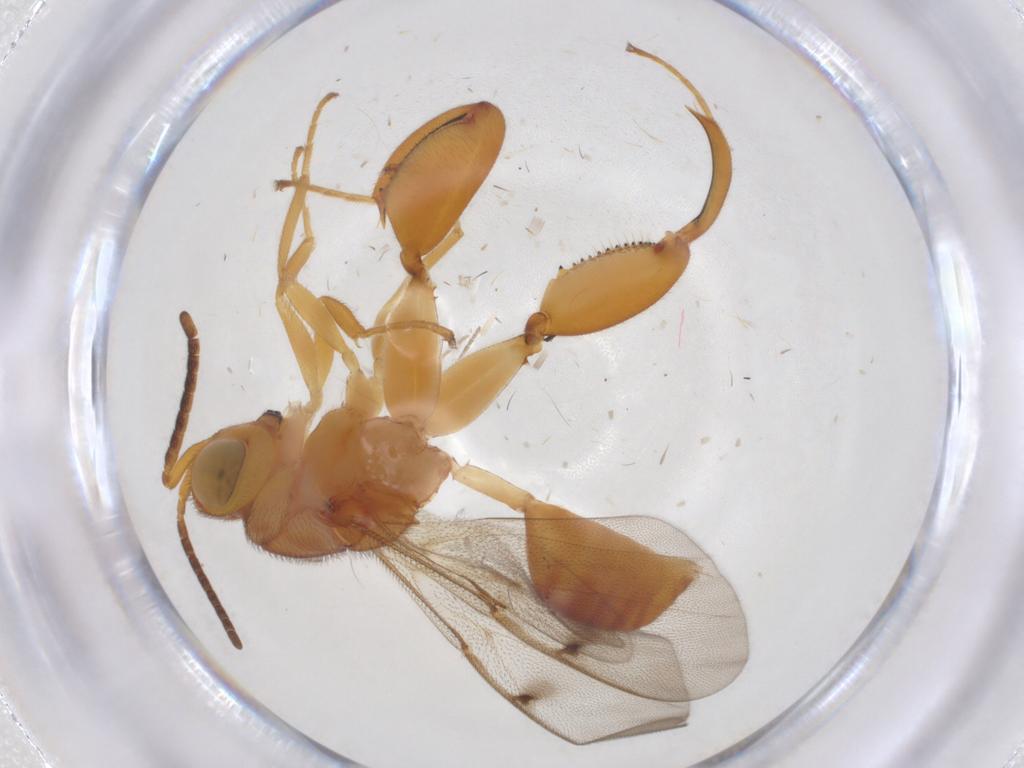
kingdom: Animalia
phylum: Arthropoda
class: Insecta
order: Hymenoptera
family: Chalcididae
